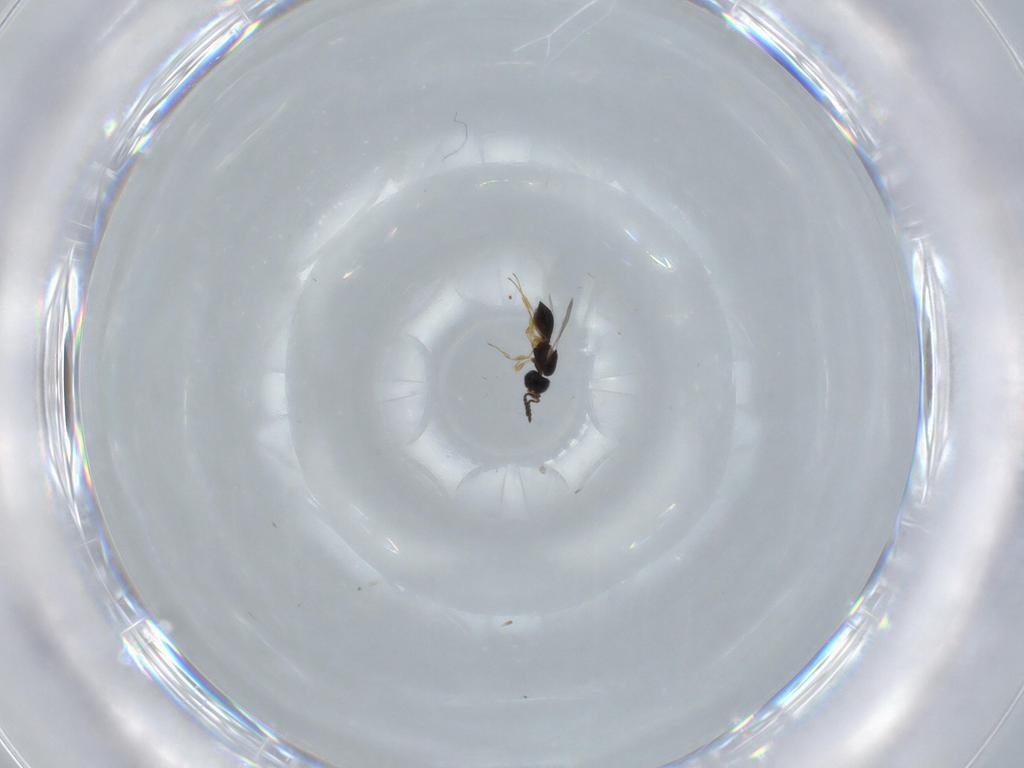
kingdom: Animalia
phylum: Arthropoda
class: Insecta
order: Hymenoptera
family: Scelionidae
